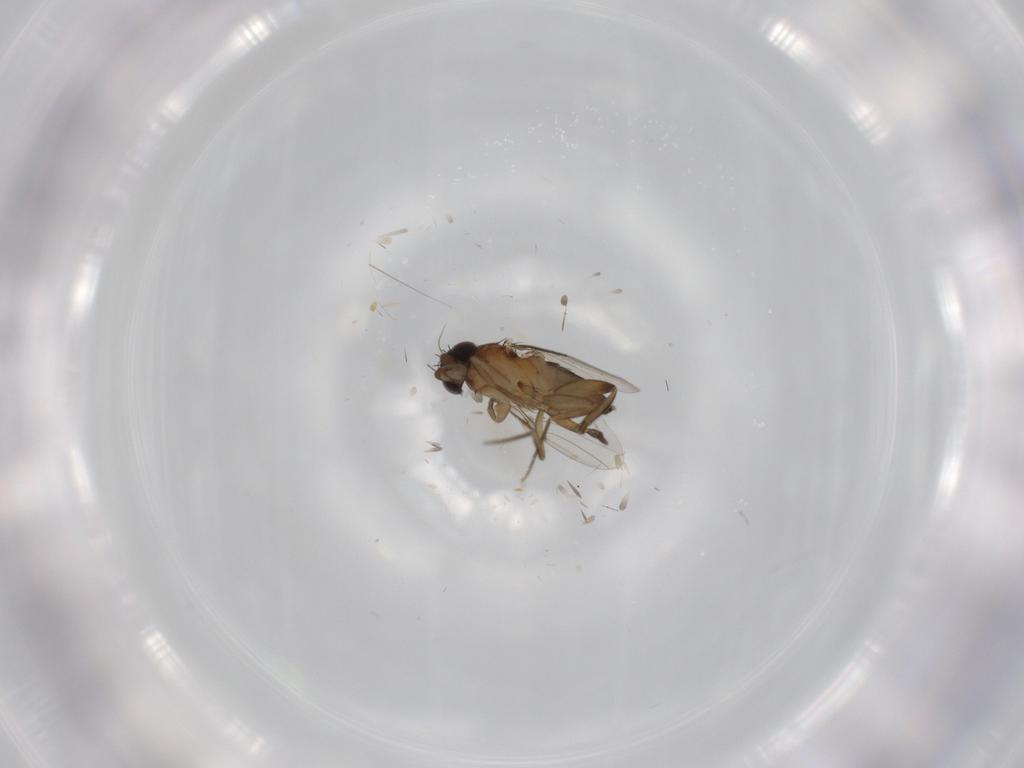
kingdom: Animalia
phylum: Arthropoda
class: Insecta
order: Diptera
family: Phoridae
